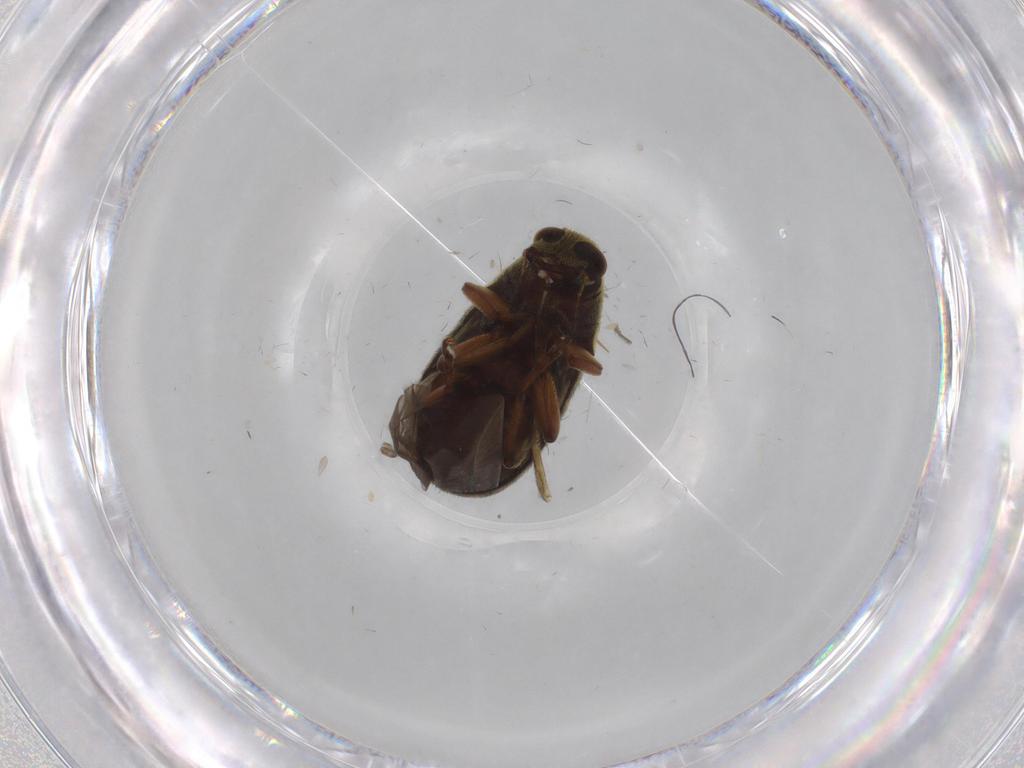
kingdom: Animalia
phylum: Arthropoda
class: Insecta
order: Coleoptera
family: Anthribidae
